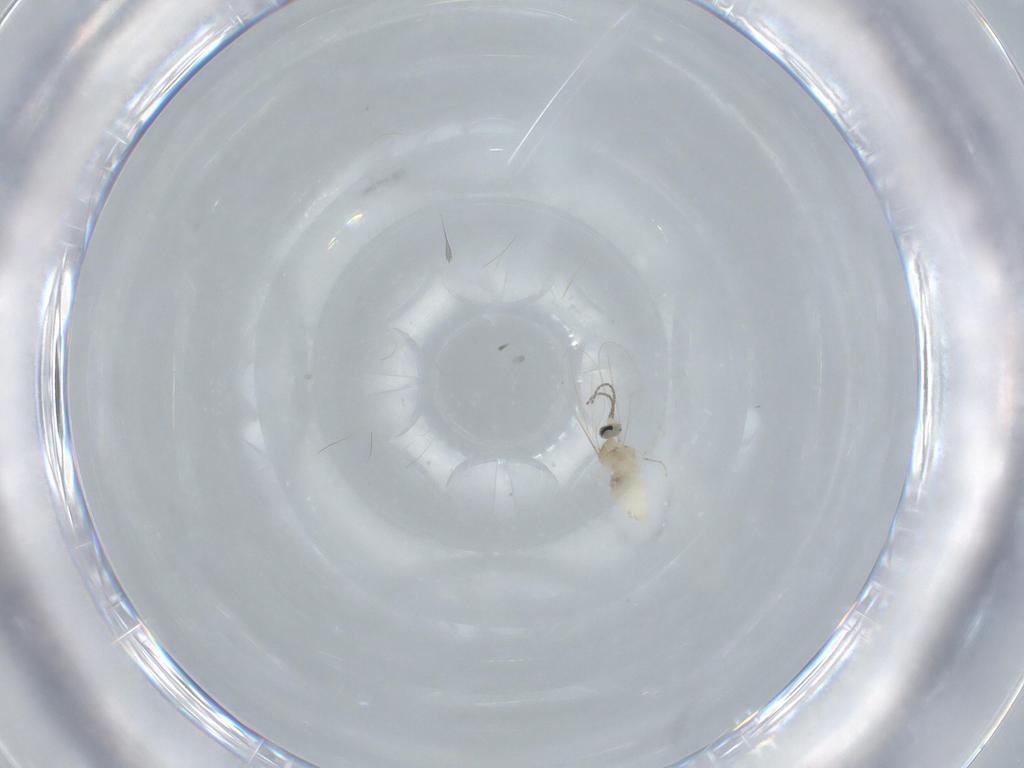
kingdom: Animalia
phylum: Arthropoda
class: Insecta
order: Diptera
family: Cecidomyiidae
